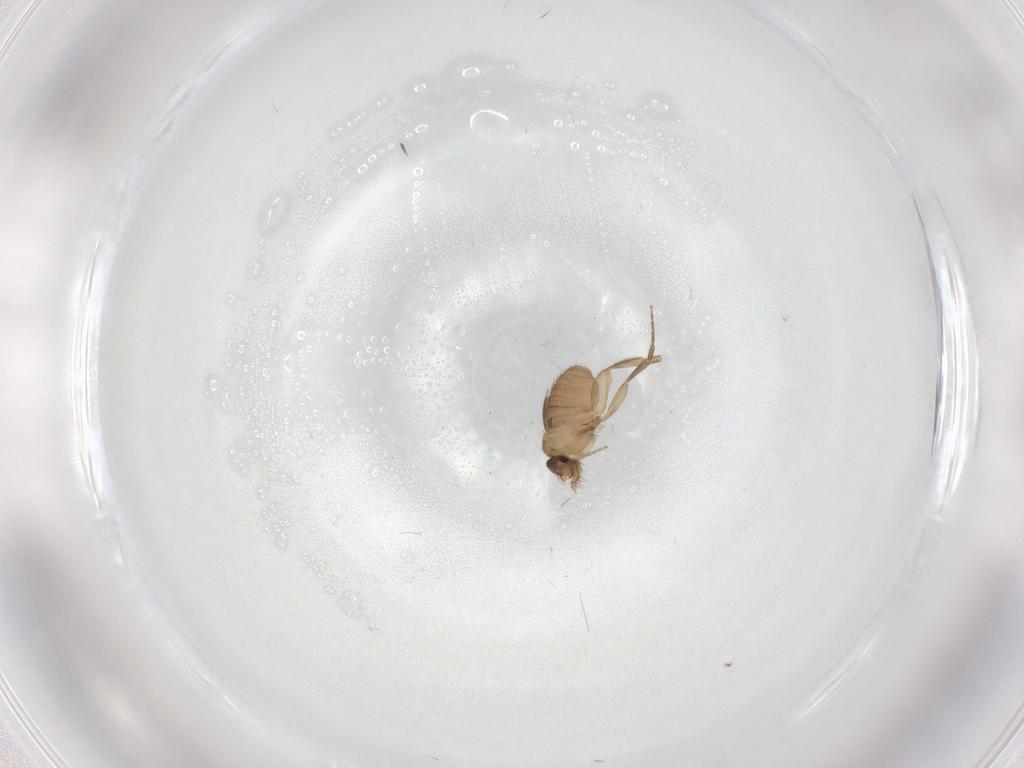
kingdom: Animalia
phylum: Arthropoda
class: Insecta
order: Diptera
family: Phoridae
